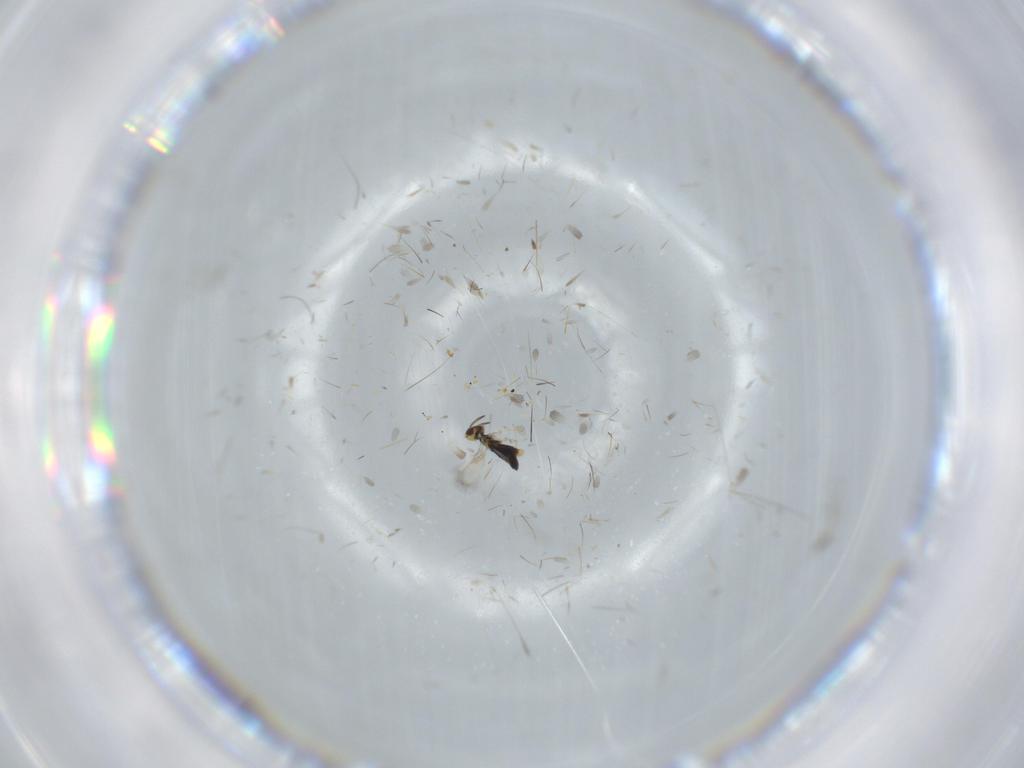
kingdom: Animalia
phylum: Arthropoda
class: Insecta
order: Hymenoptera
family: Formicidae
